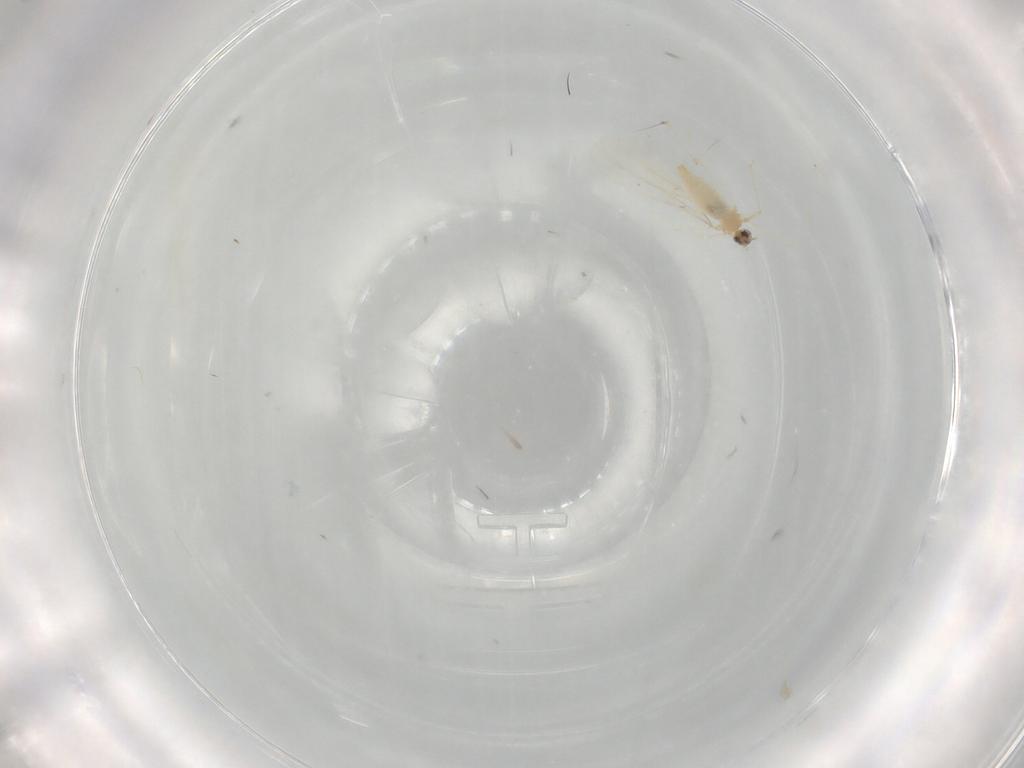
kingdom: Animalia
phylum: Arthropoda
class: Insecta
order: Diptera
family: Cecidomyiidae
